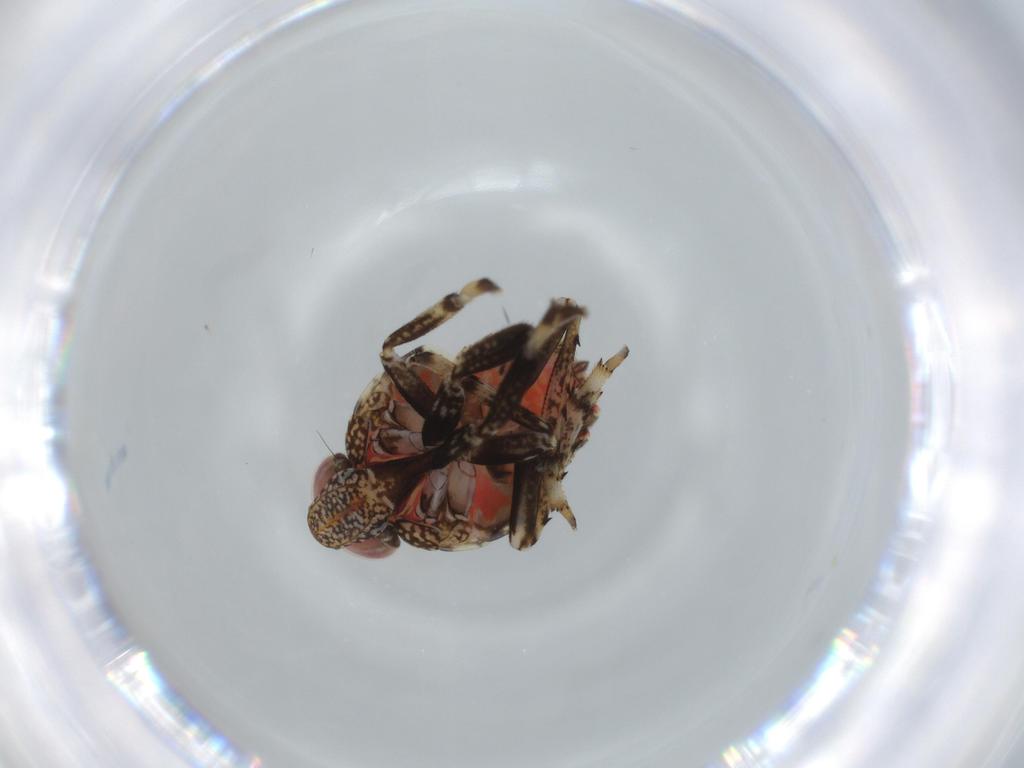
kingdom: Animalia
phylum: Arthropoda
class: Insecta
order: Hemiptera
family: Issidae
